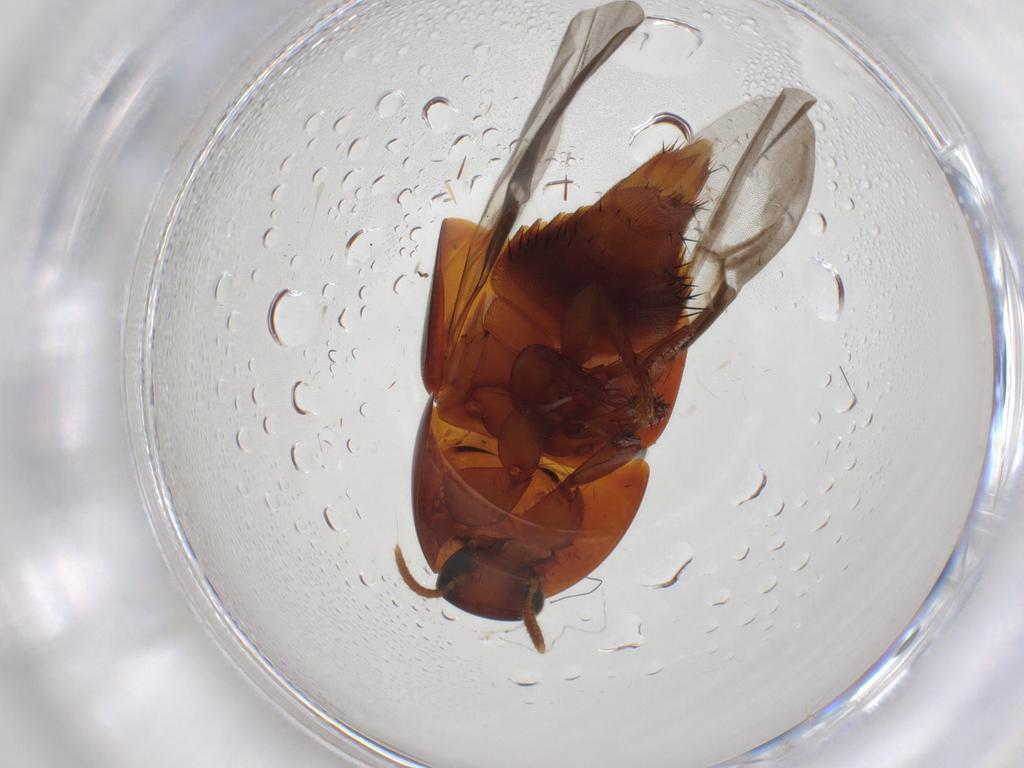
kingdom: Animalia
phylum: Arthropoda
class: Insecta
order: Coleoptera
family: Staphylinidae
